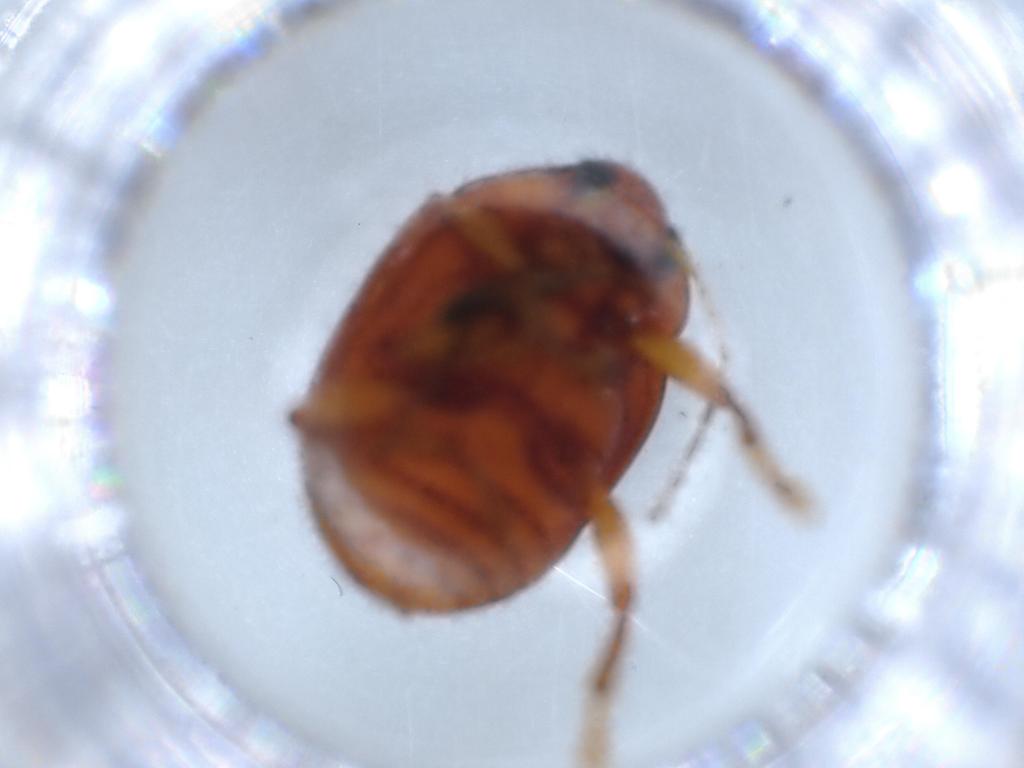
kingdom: Animalia
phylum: Arthropoda
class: Insecta
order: Coleoptera
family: Chrysomelidae
